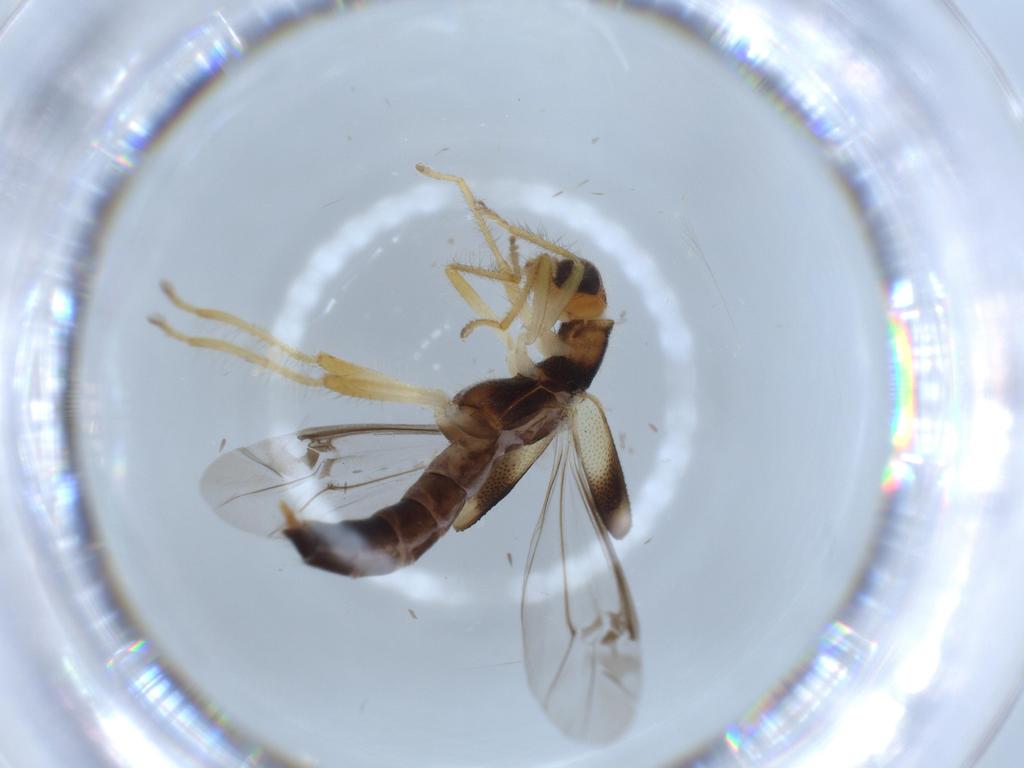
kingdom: Animalia
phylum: Arthropoda
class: Insecta
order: Coleoptera
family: Cleridae
